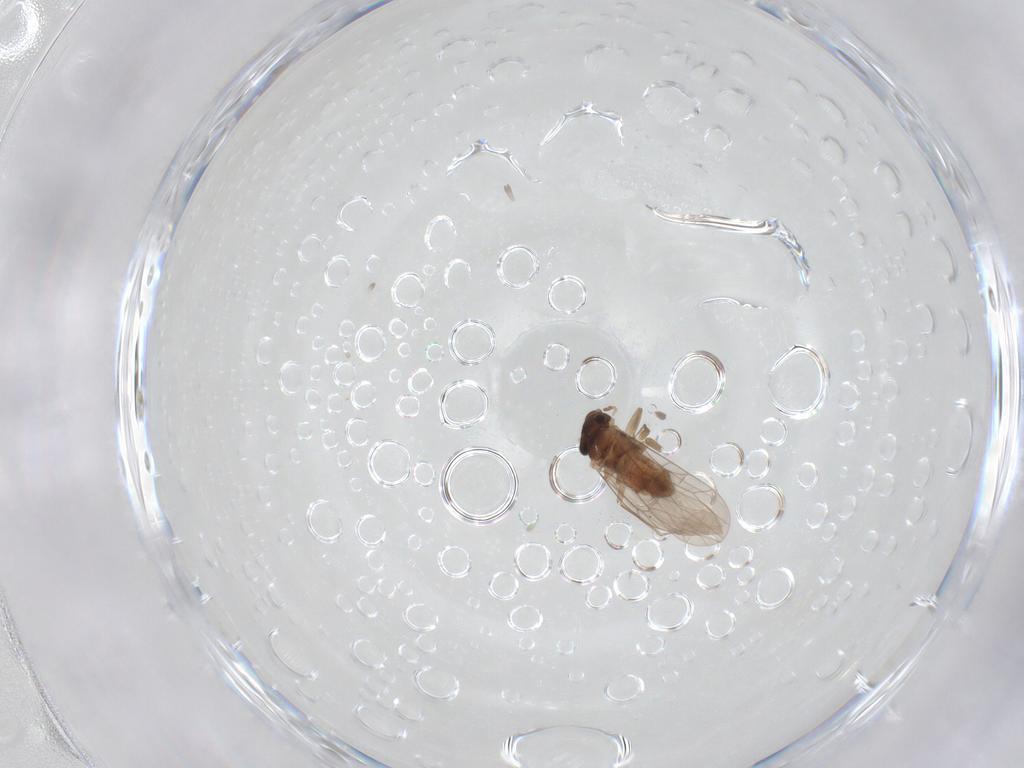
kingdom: Animalia
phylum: Arthropoda
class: Insecta
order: Psocodea
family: Lepidopsocidae
